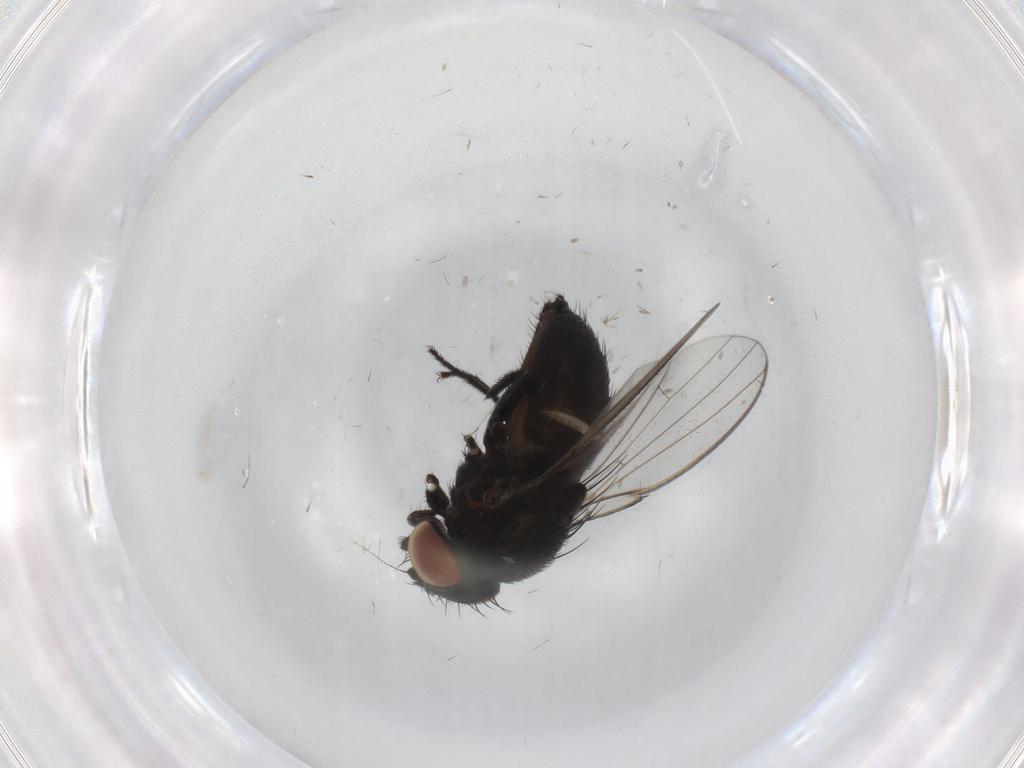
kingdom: Animalia
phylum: Arthropoda
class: Insecta
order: Diptera
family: Milichiidae
